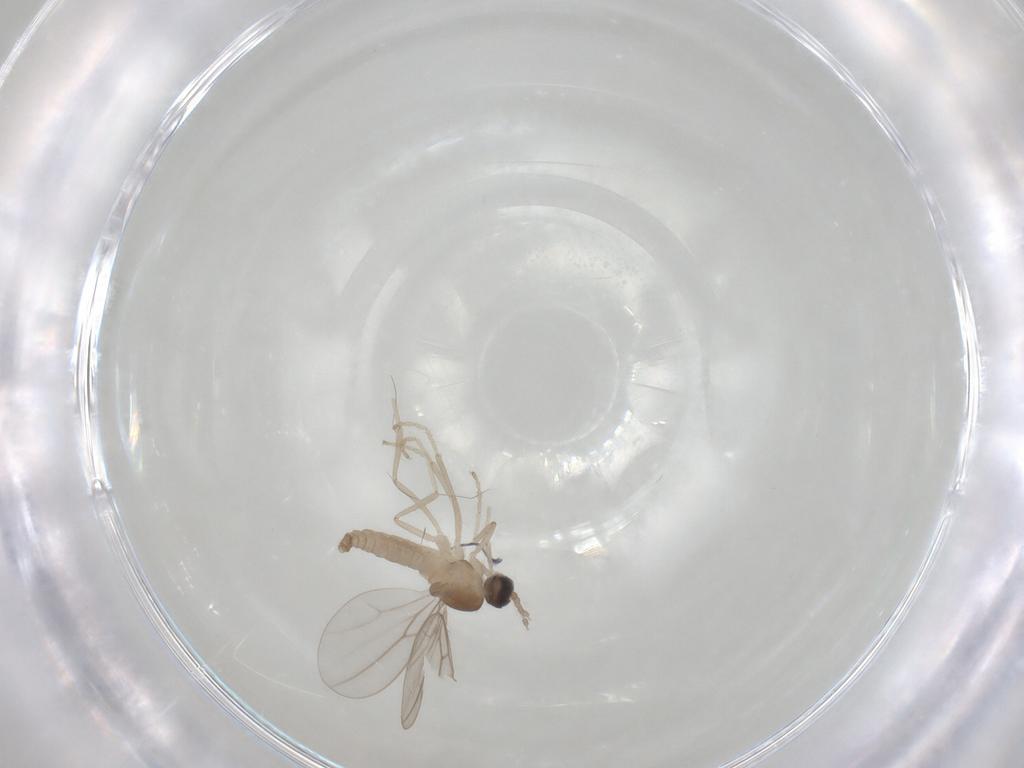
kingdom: Animalia
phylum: Arthropoda
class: Insecta
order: Diptera
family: Cecidomyiidae
